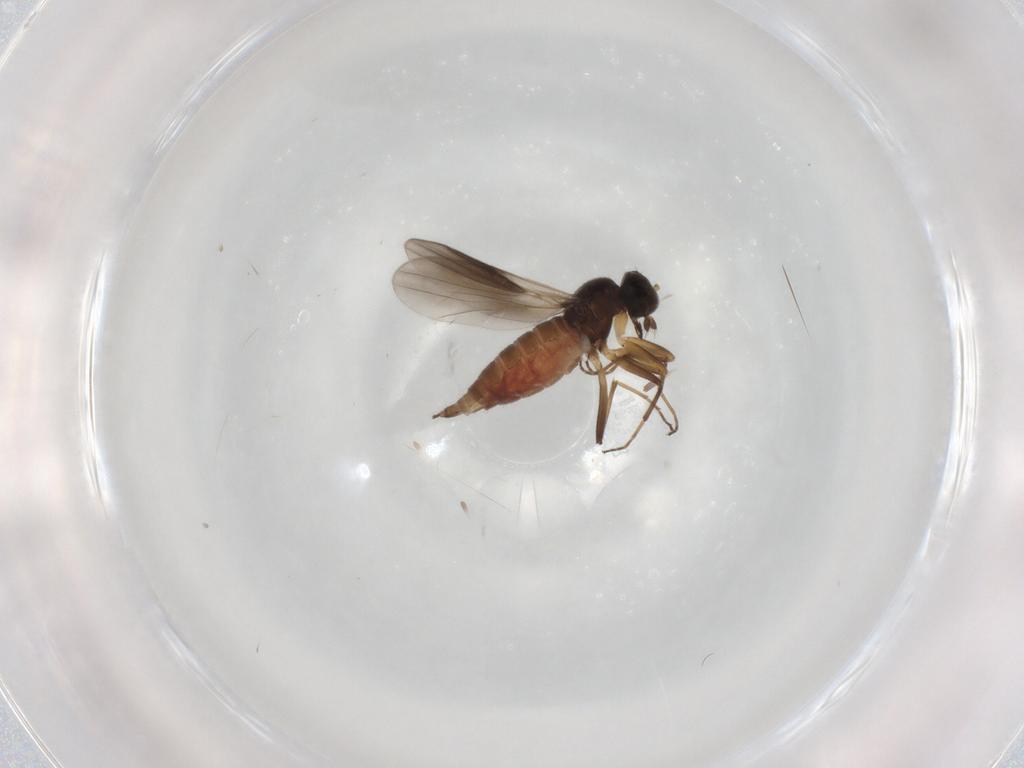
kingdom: Animalia
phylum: Arthropoda
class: Insecta
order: Diptera
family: Hybotidae
